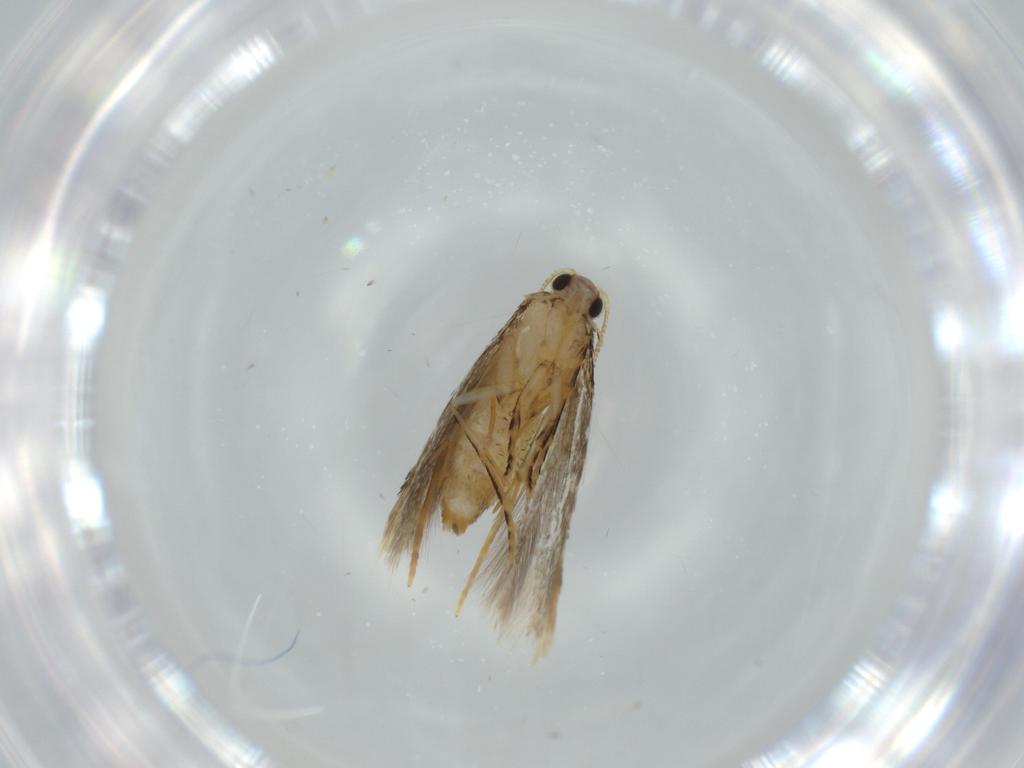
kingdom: Animalia
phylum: Arthropoda
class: Insecta
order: Lepidoptera
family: Tineidae
